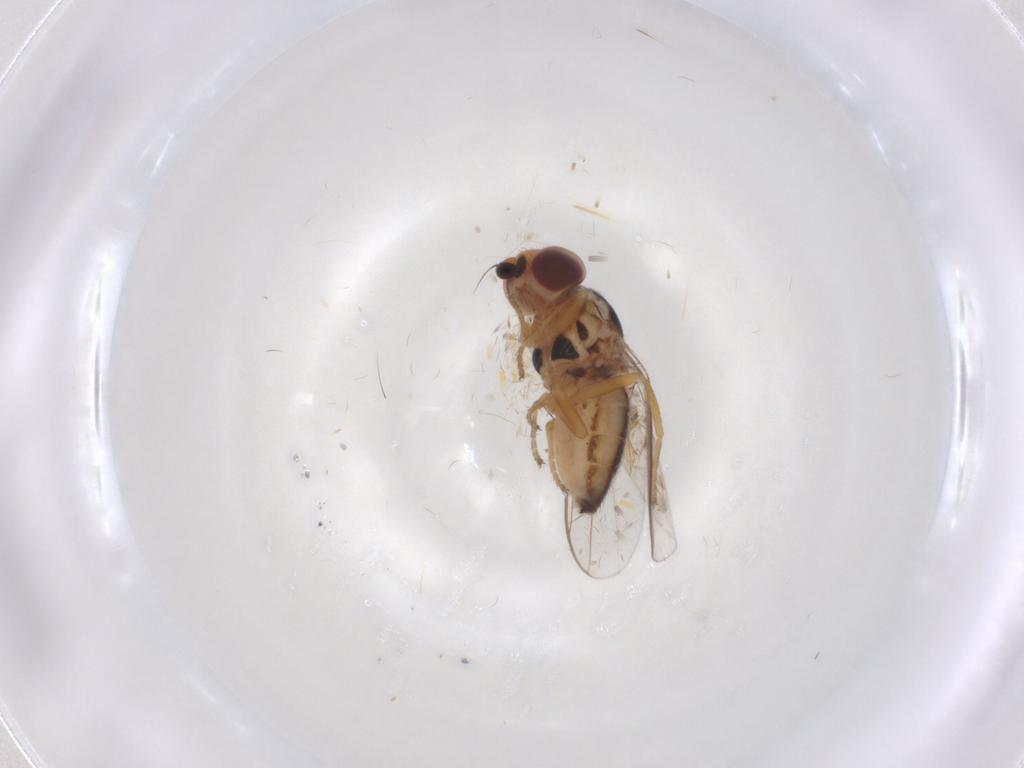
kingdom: Animalia
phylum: Arthropoda
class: Insecta
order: Diptera
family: Chloropidae
